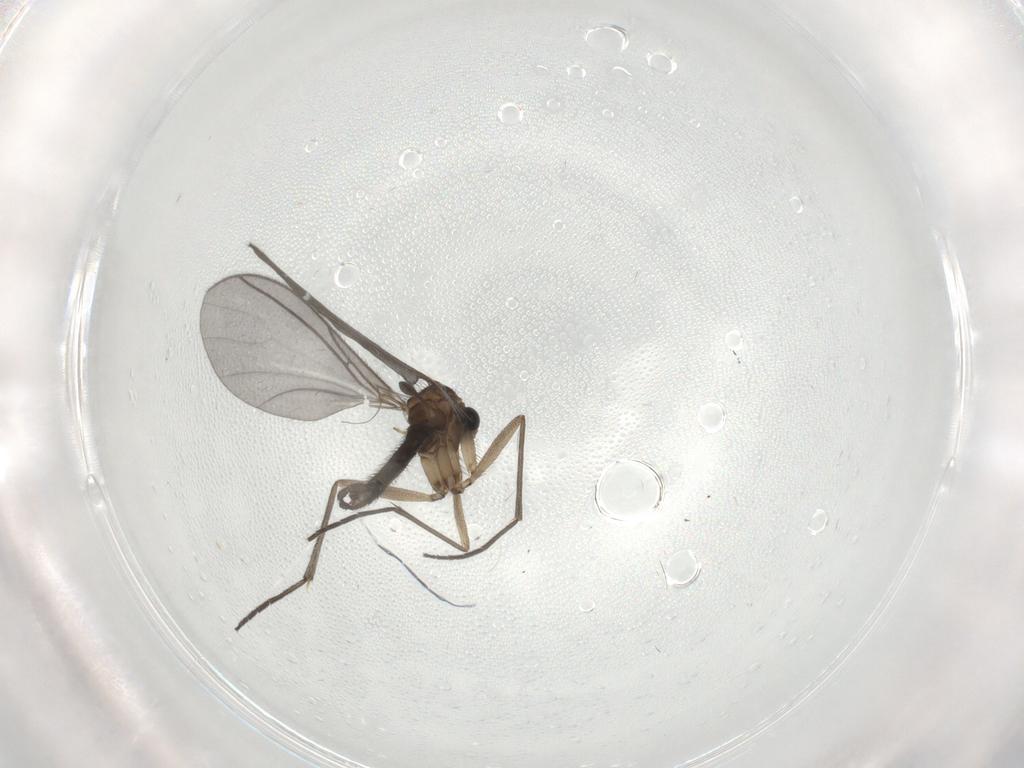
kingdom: Animalia
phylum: Arthropoda
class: Insecta
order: Diptera
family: Sciaridae
